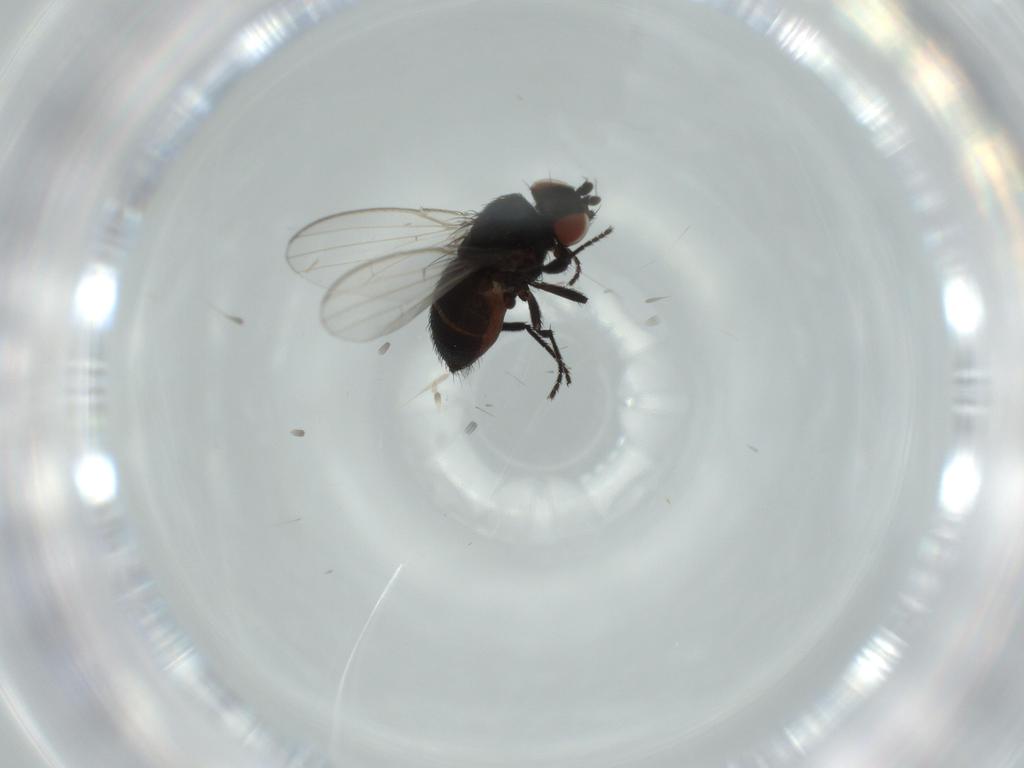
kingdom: Animalia
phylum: Arthropoda
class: Insecta
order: Diptera
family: Milichiidae
